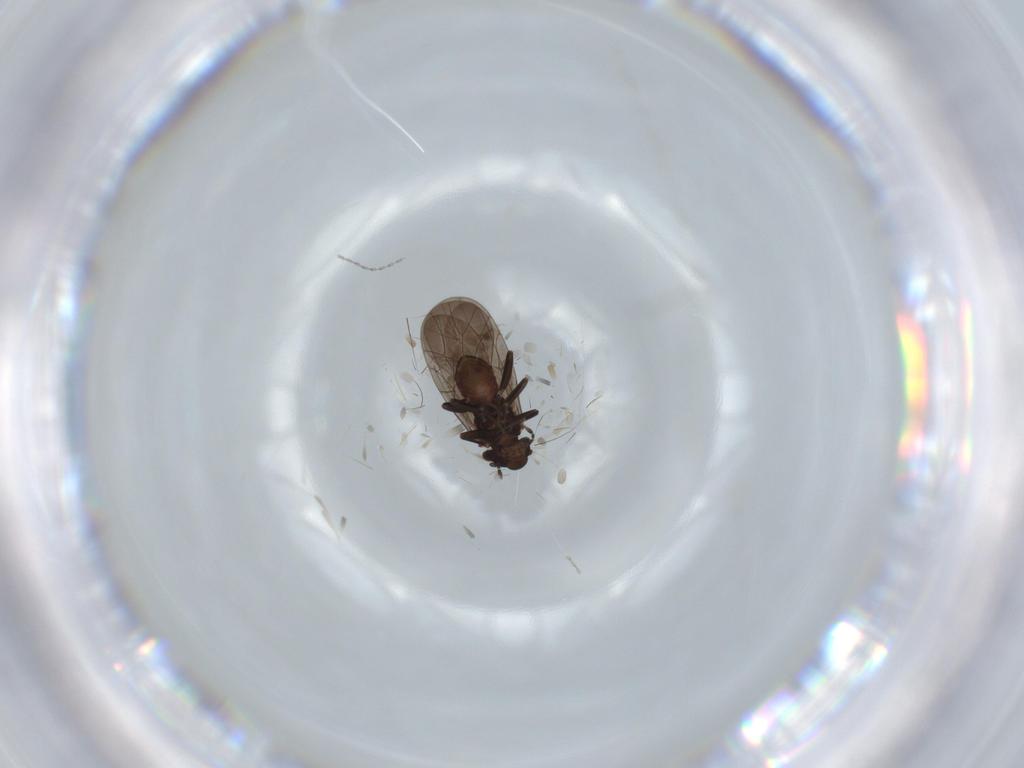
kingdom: Animalia
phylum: Arthropoda
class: Insecta
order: Psocodea
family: Lepidopsocidae
